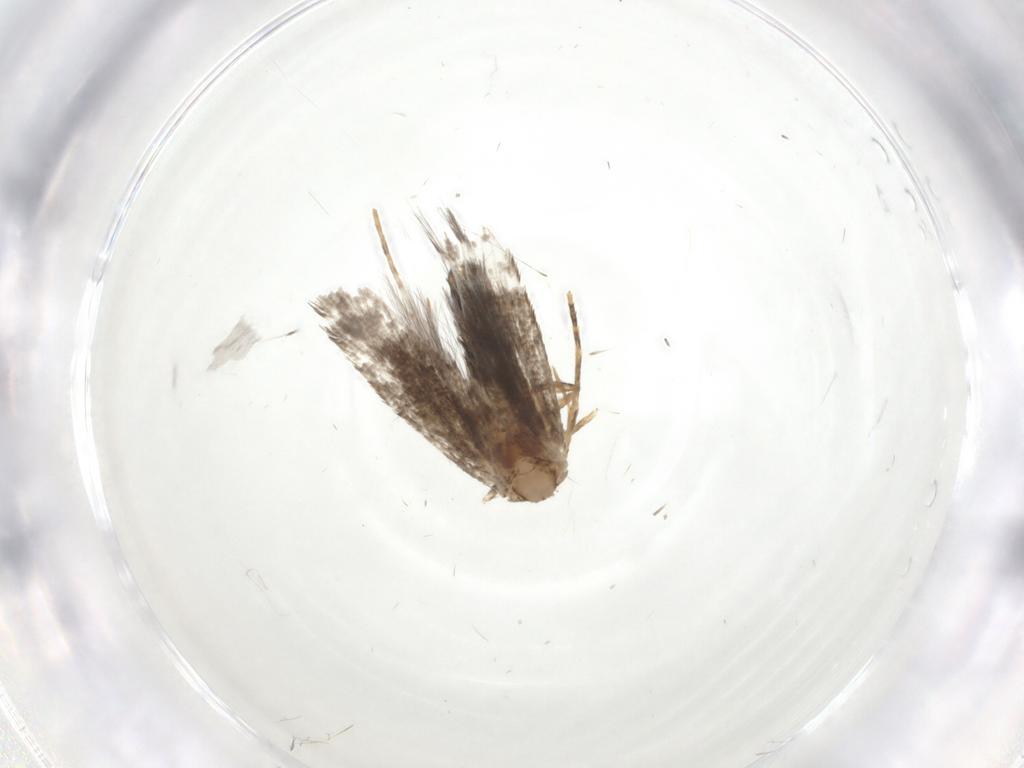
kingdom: Animalia
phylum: Arthropoda
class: Insecta
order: Lepidoptera
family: Tineidae
